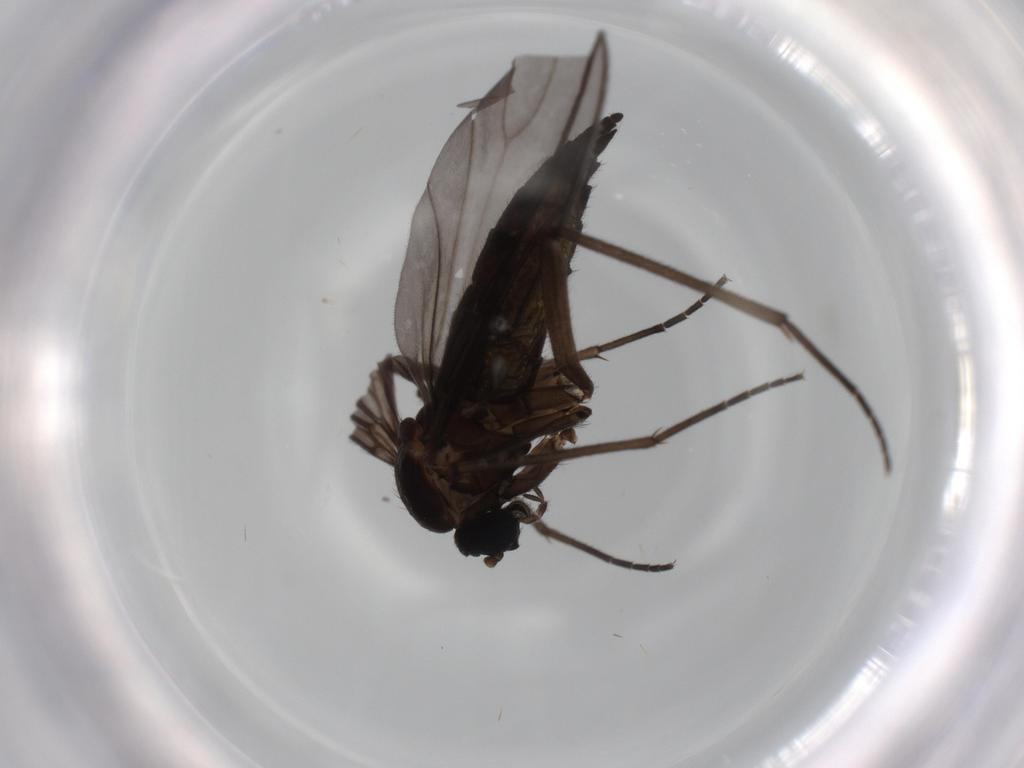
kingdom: Animalia
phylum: Arthropoda
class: Insecta
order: Diptera
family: Sciaridae
